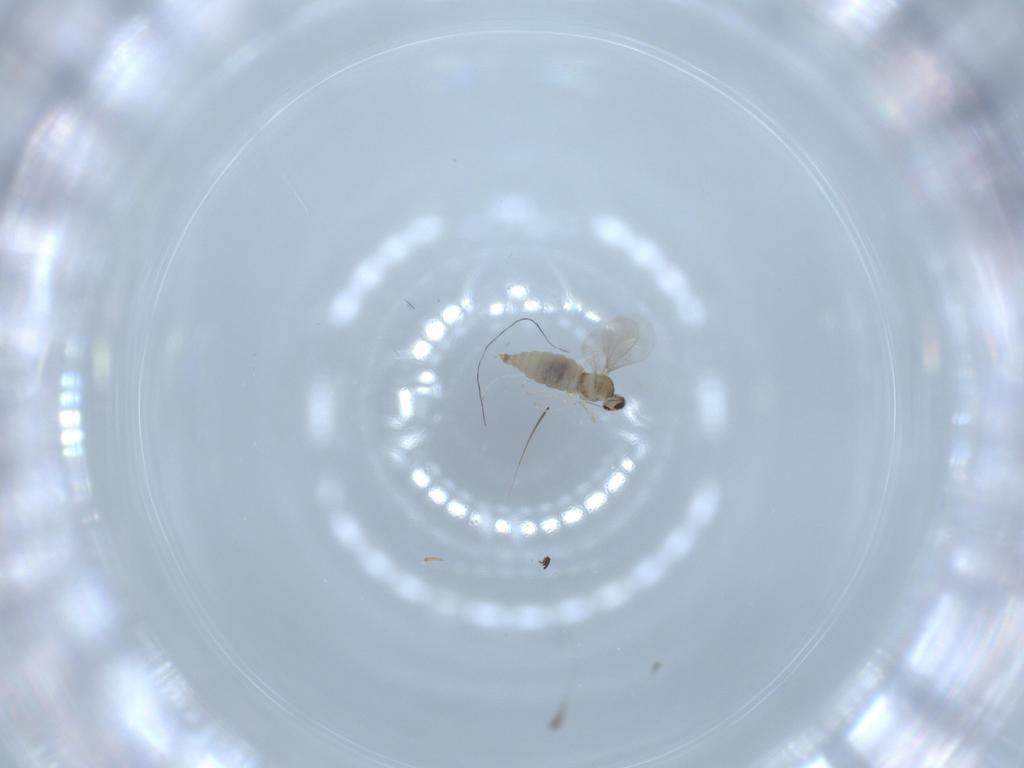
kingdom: Animalia
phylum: Arthropoda
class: Insecta
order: Diptera
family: Cecidomyiidae
